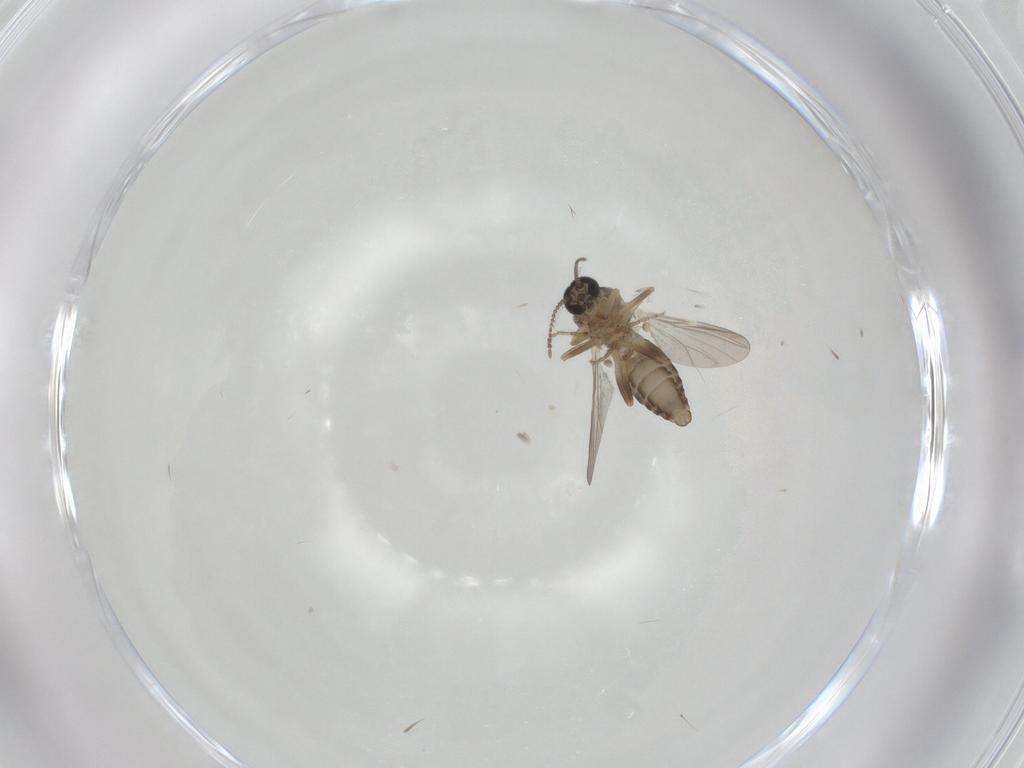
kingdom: Animalia
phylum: Arthropoda
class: Insecta
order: Diptera
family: Ceratopogonidae
